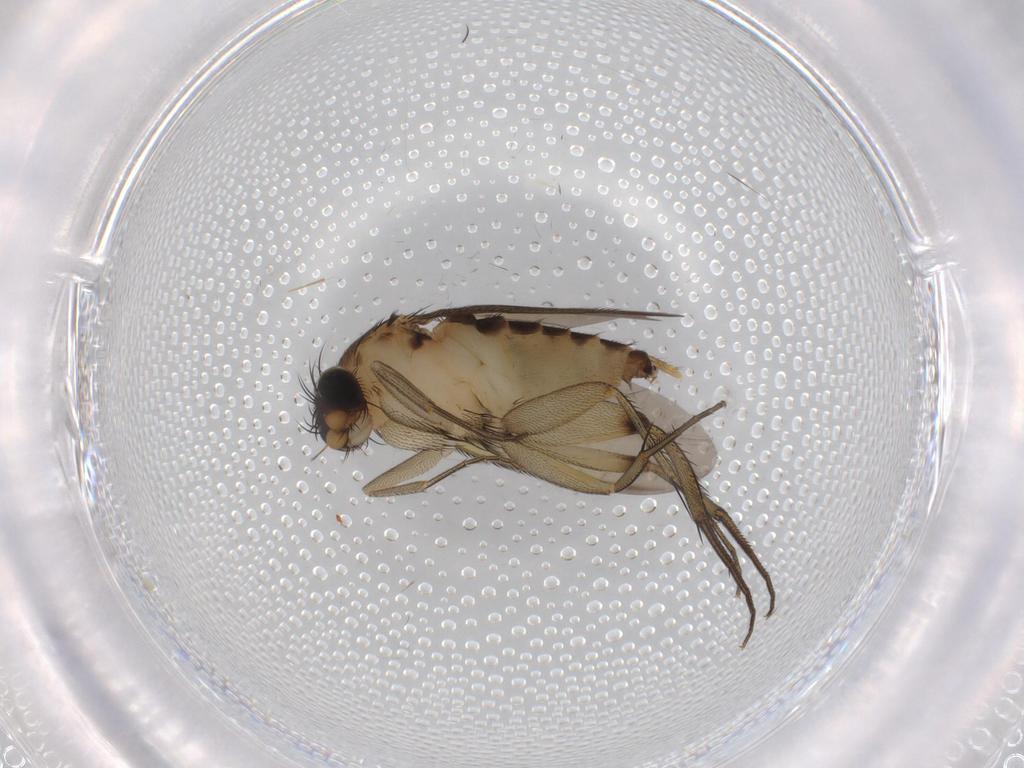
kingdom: Animalia
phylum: Arthropoda
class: Insecta
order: Diptera
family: Phoridae
